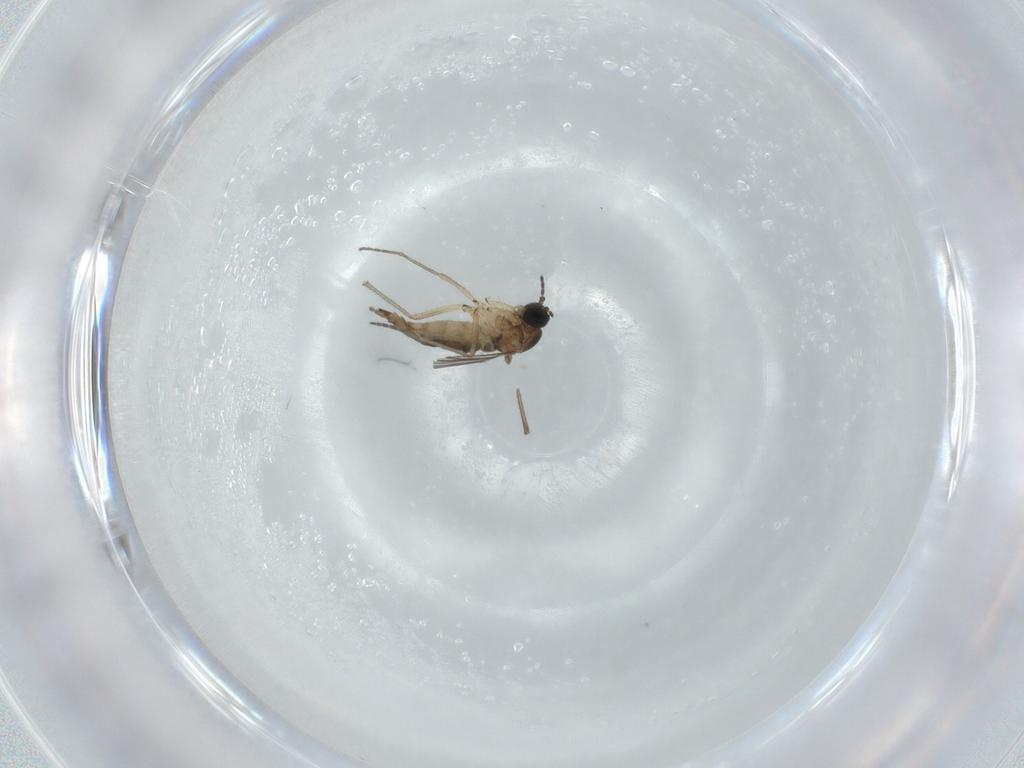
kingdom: Animalia
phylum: Arthropoda
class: Insecta
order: Diptera
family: Sciaridae
